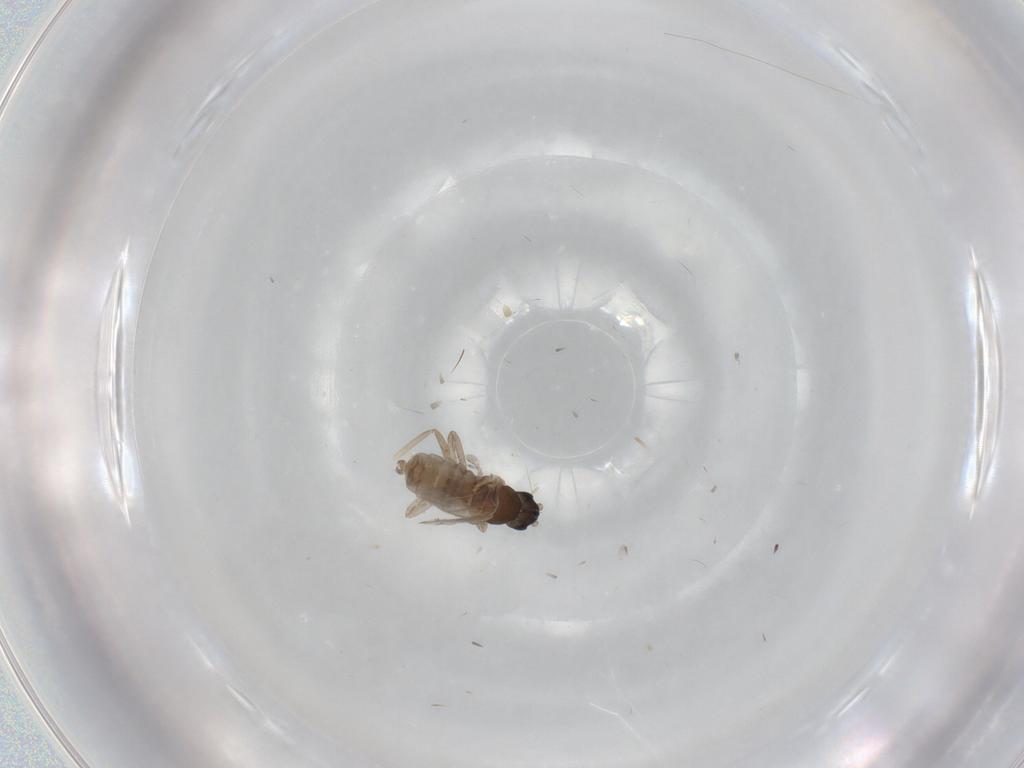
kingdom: Animalia
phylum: Arthropoda
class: Insecta
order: Diptera
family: Cecidomyiidae
